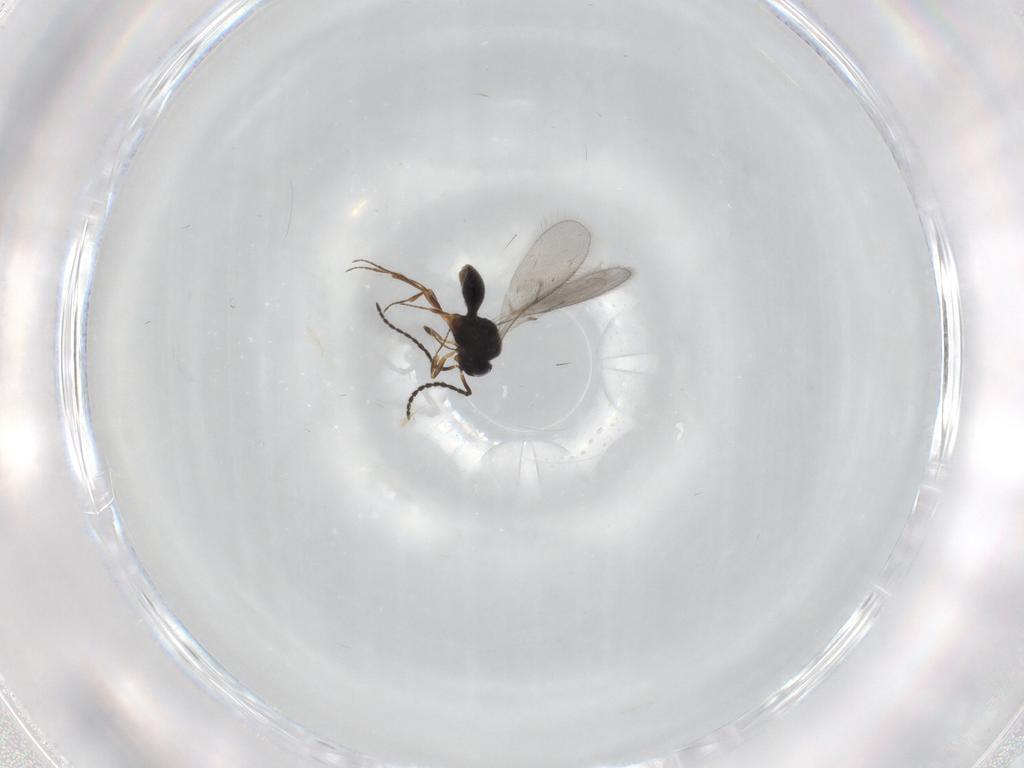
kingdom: Animalia
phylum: Arthropoda
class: Insecta
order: Hymenoptera
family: Scelionidae
